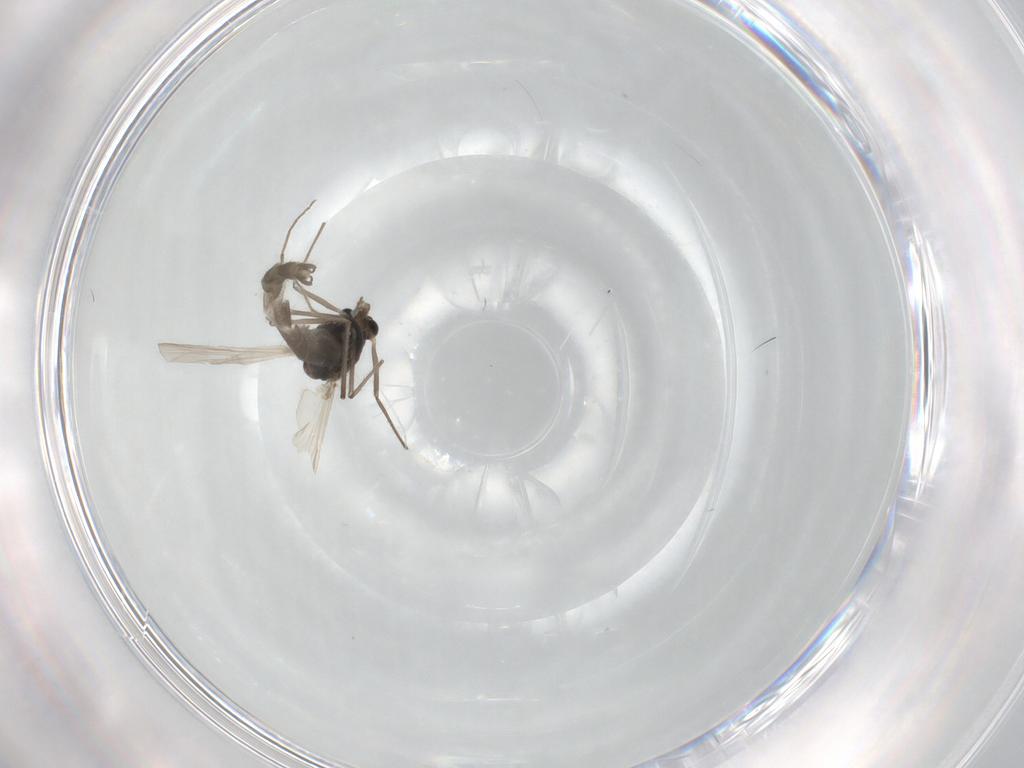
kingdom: Animalia
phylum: Arthropoda
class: Insecta
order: Diptera
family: Chironomidae
